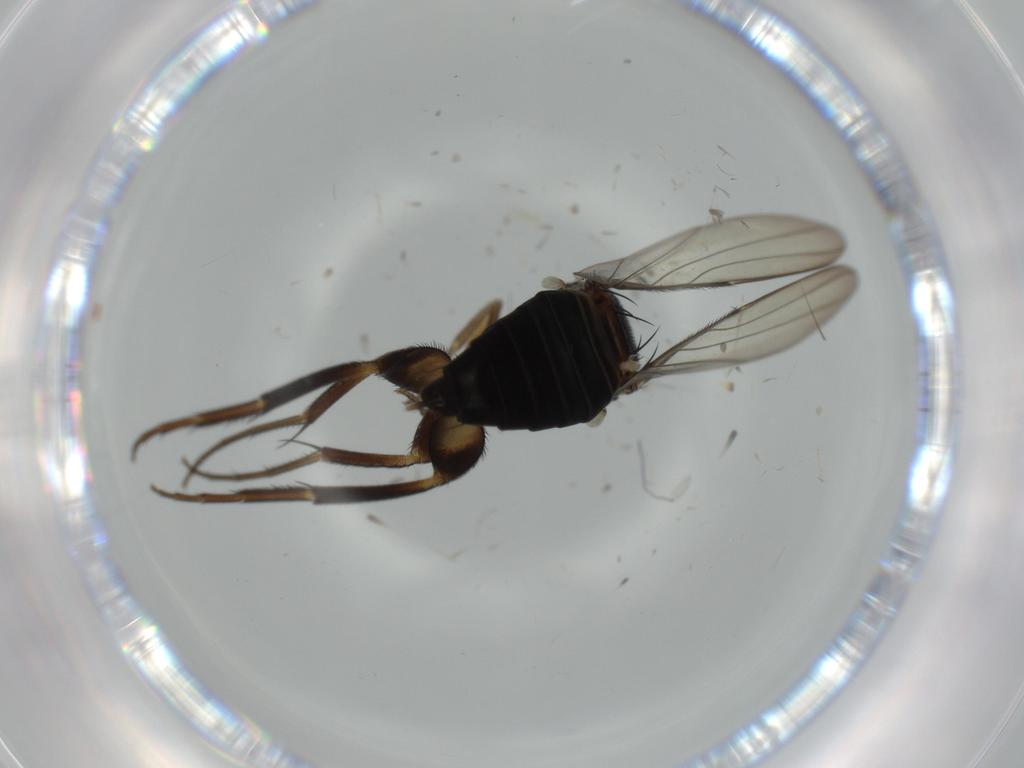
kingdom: Animalia
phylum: Arthropoda
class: Insecta
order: Diptera
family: Phoridae
